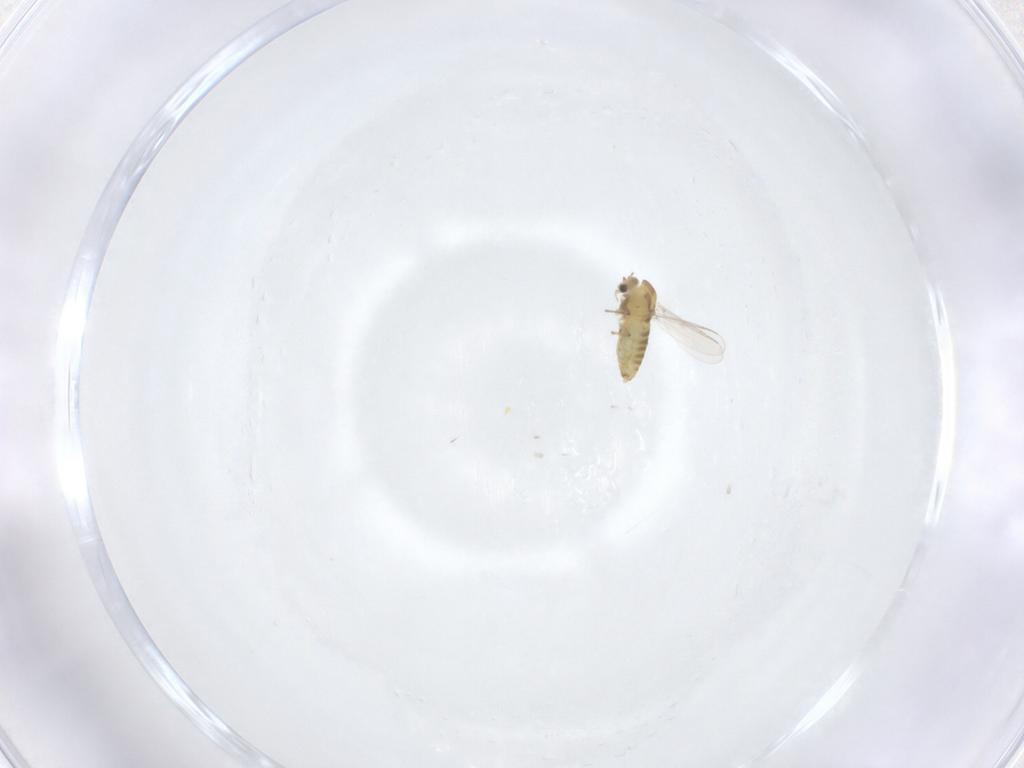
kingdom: Animalia
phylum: Arthropoda
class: Insecta
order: Diptera
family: Chironomidae
